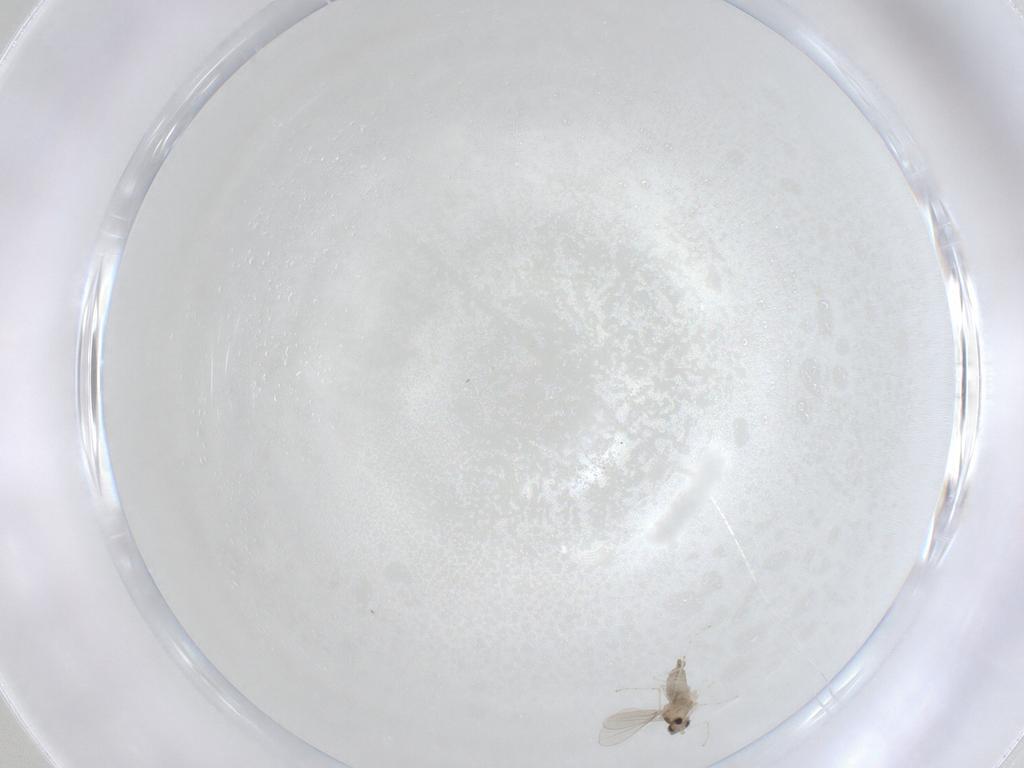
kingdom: Animalia
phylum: Arthropoda
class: Insecta
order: Diptera
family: Cecidomyiidae
